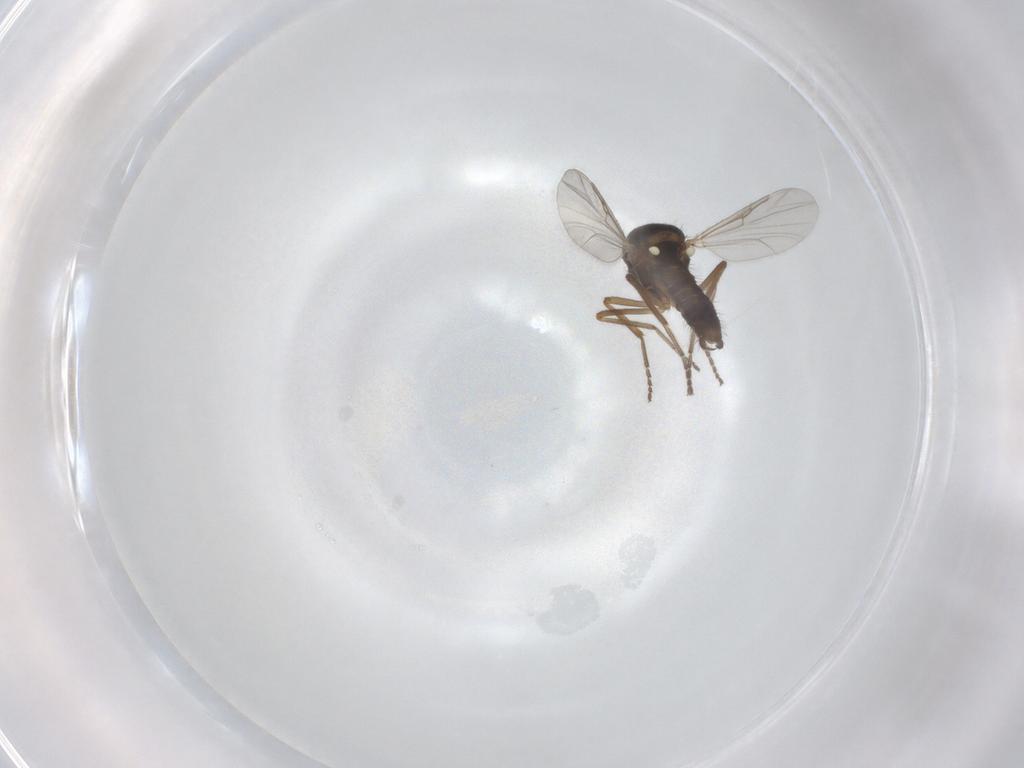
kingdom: Animalia
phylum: Arthropoda
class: Insecta
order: Diptera
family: Ceratopogonidae
